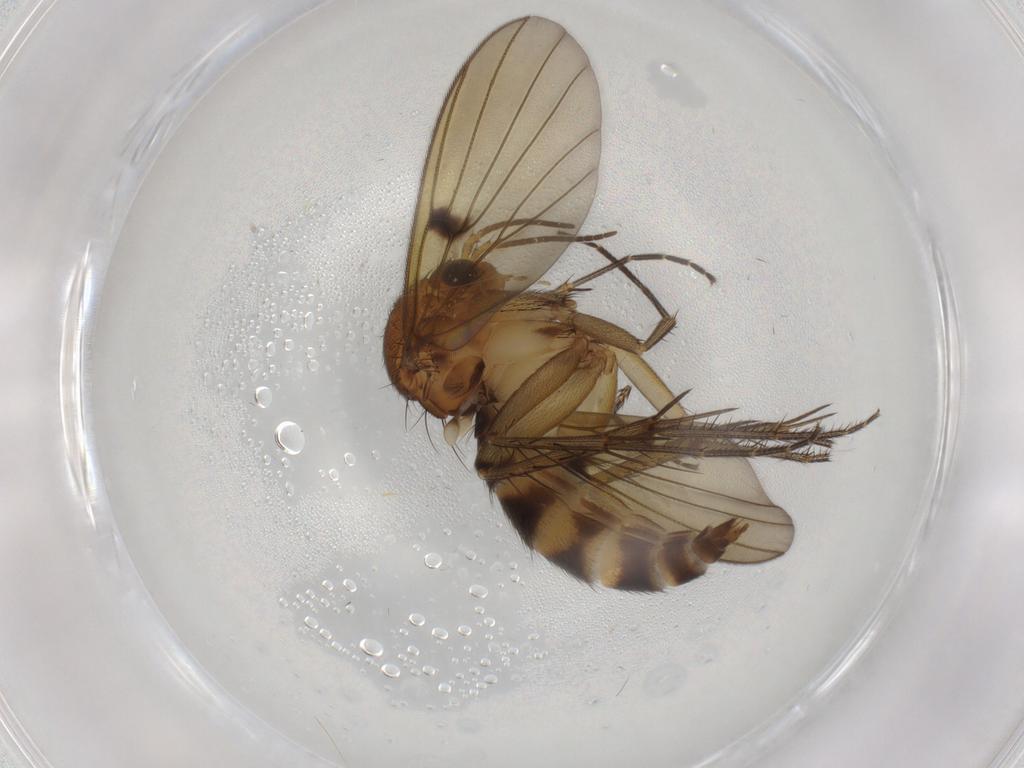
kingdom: Animalia
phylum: Arthropoda
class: Insecta
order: Diptera
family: Mycetophilidae
